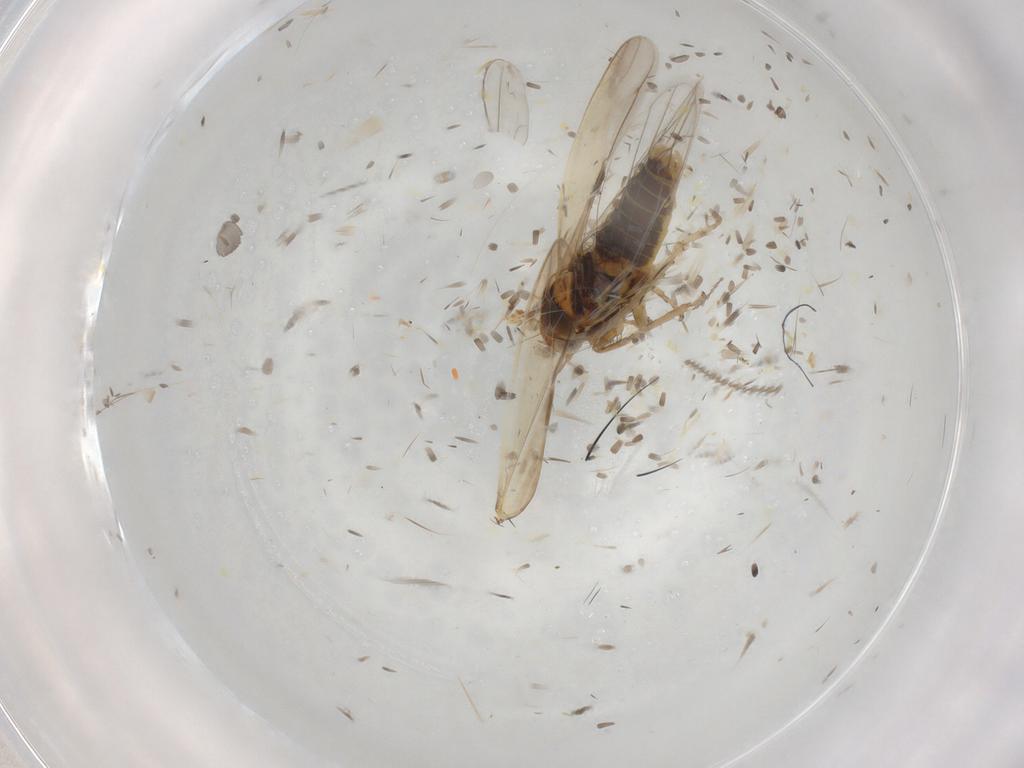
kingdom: Animalia
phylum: Arthropoda
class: Insecta
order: Hemiptera
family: Cicadellidae
